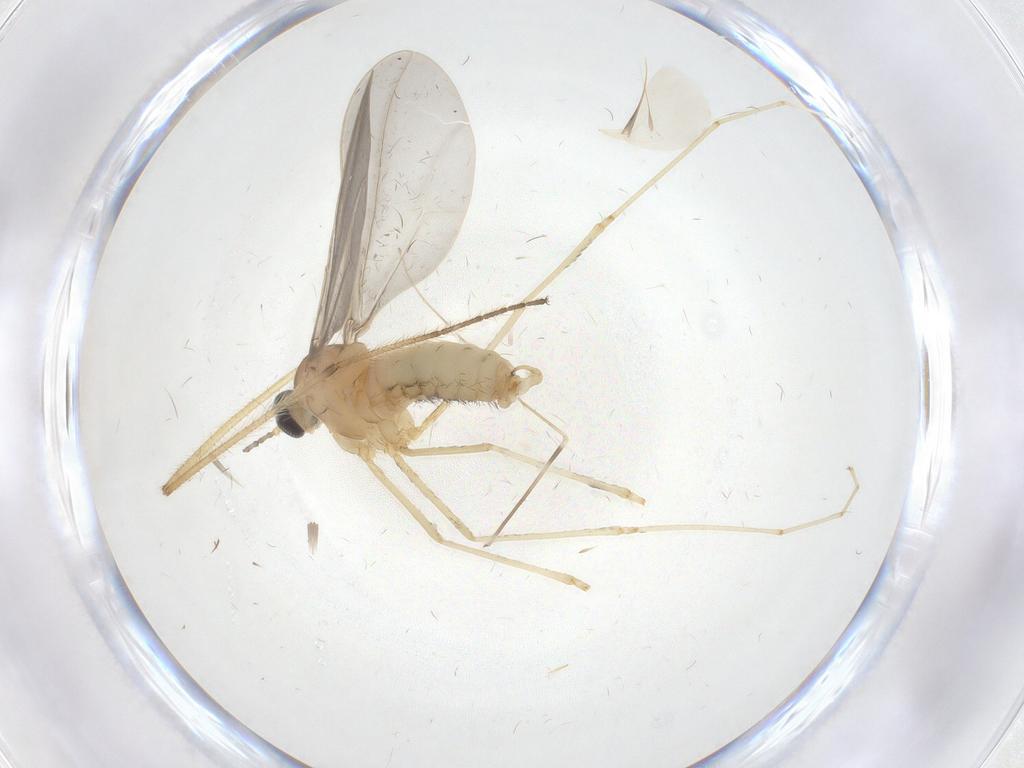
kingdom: Animalia
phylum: Arthropoda
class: Insecta
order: Diptera
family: Cecidomyiidae
